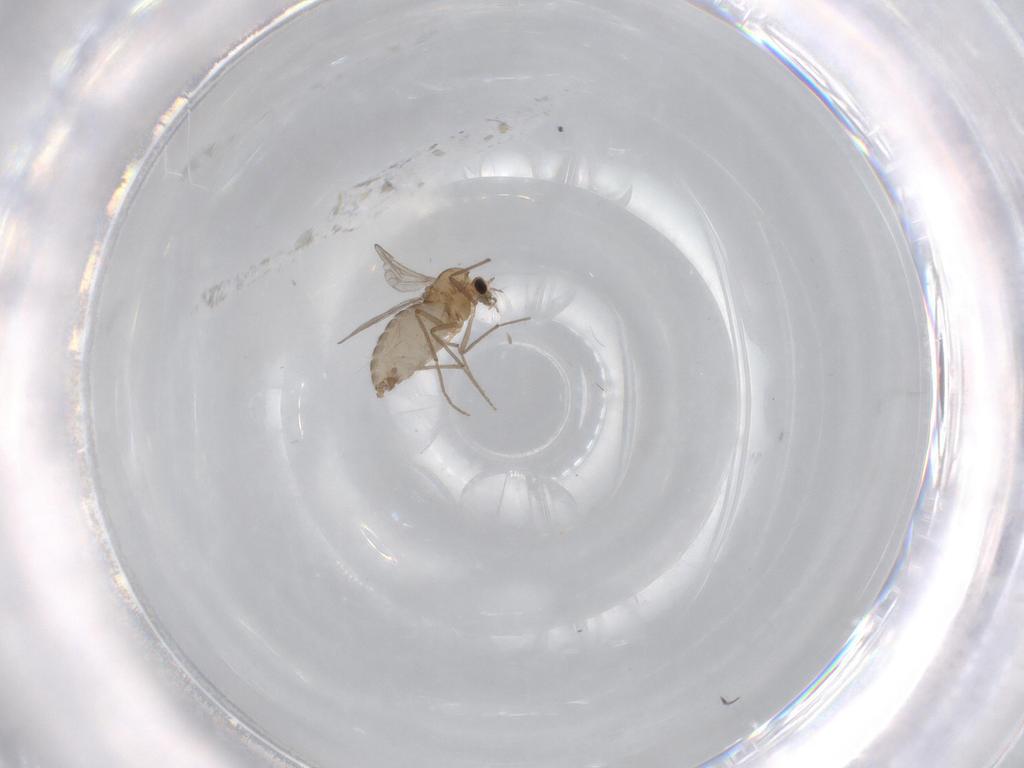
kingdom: Animalia
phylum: Arthropoda
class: Insecta
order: Diptera
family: Chironomidae
